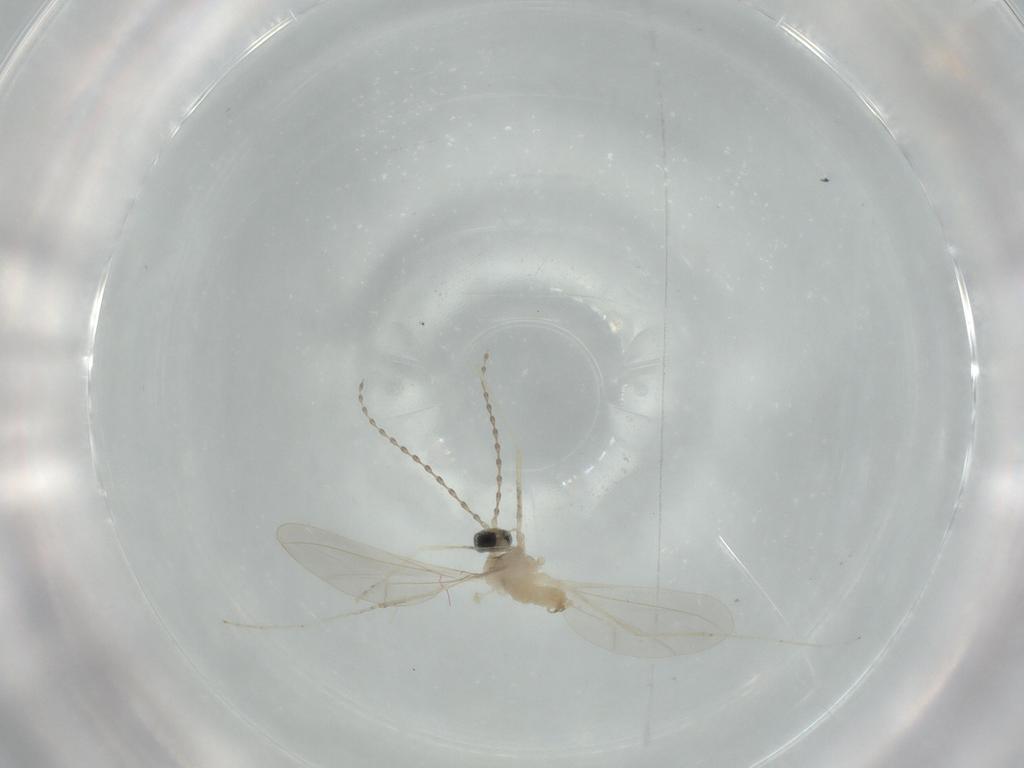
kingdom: Animalia
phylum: Arthropoda
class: Insecta
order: Diptera
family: Cecidomyiidae
